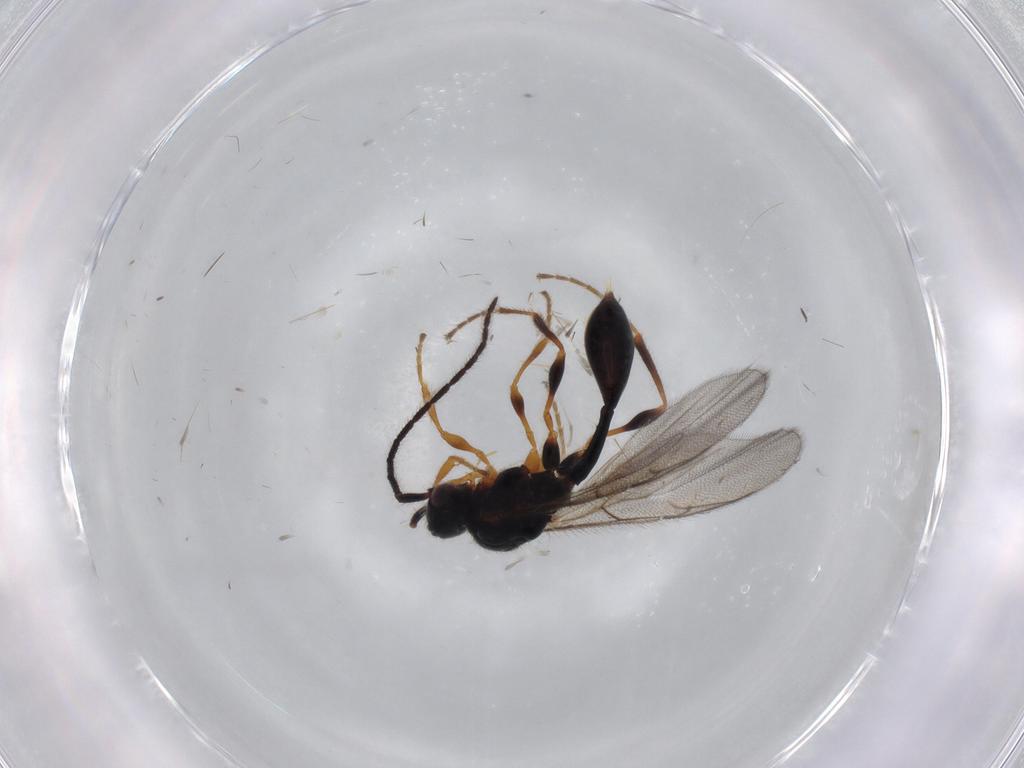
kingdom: Animalia
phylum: Arthropoda
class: Insecta
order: Hymenoptera
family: Diapriidae
